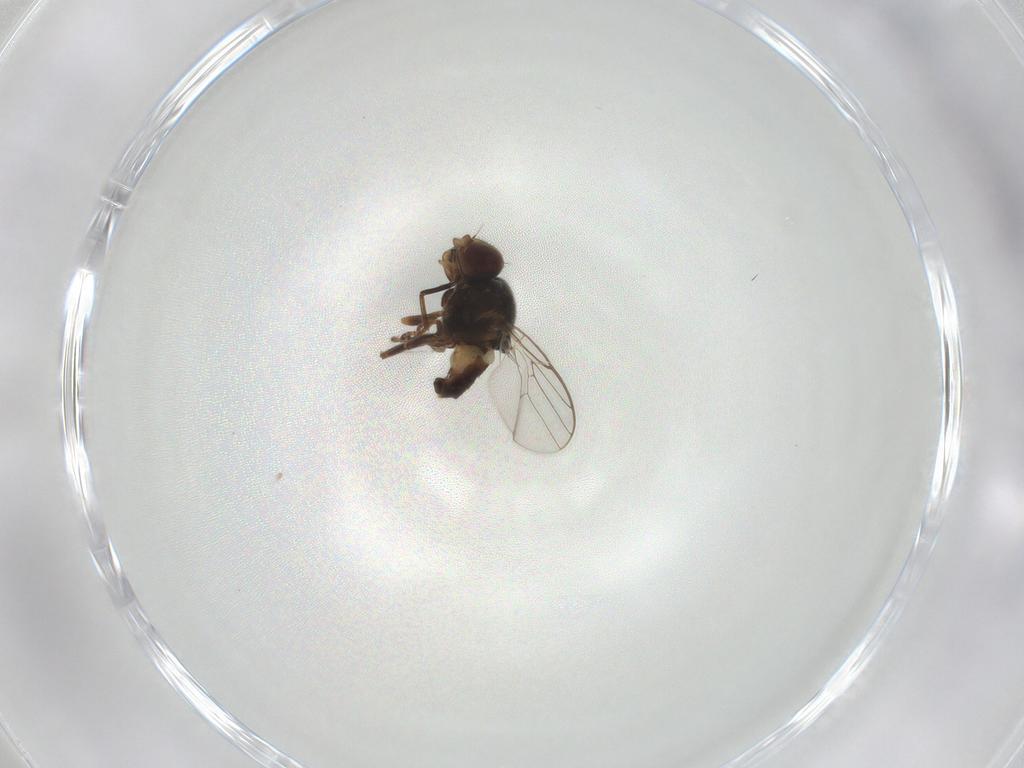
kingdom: Animalia
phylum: Arthropoda
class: Insecta
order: Diptera
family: Chloropidae
